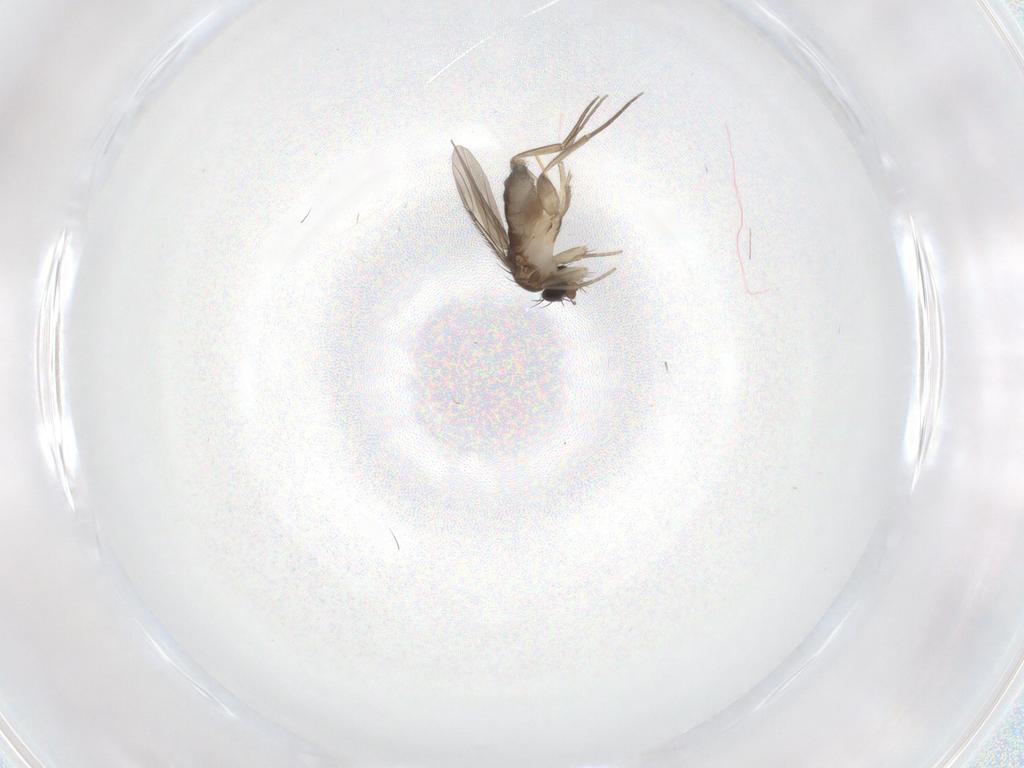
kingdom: Animalia
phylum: Arthropoda
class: Insecta
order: Diptera
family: Phoridae
